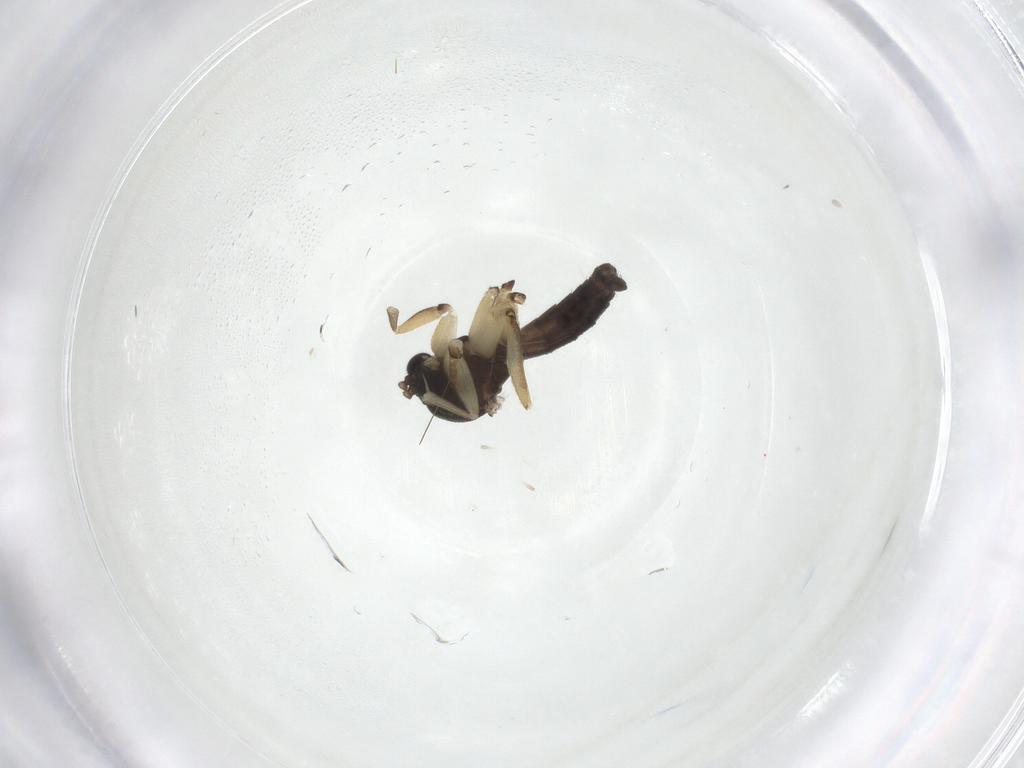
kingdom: Animalia
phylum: Arthropoda
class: Insecta
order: Diptera
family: Mycetophilidae
